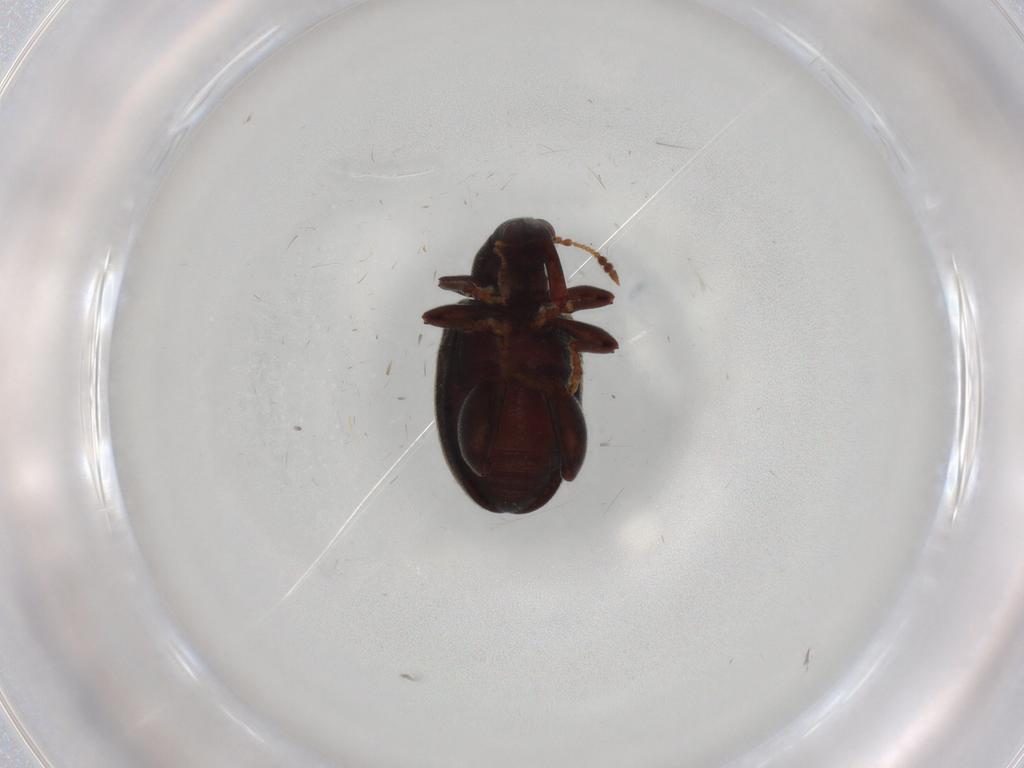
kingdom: Animalia
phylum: Arthropoda
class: Insecta
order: Coleoptera
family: Curculionidae
